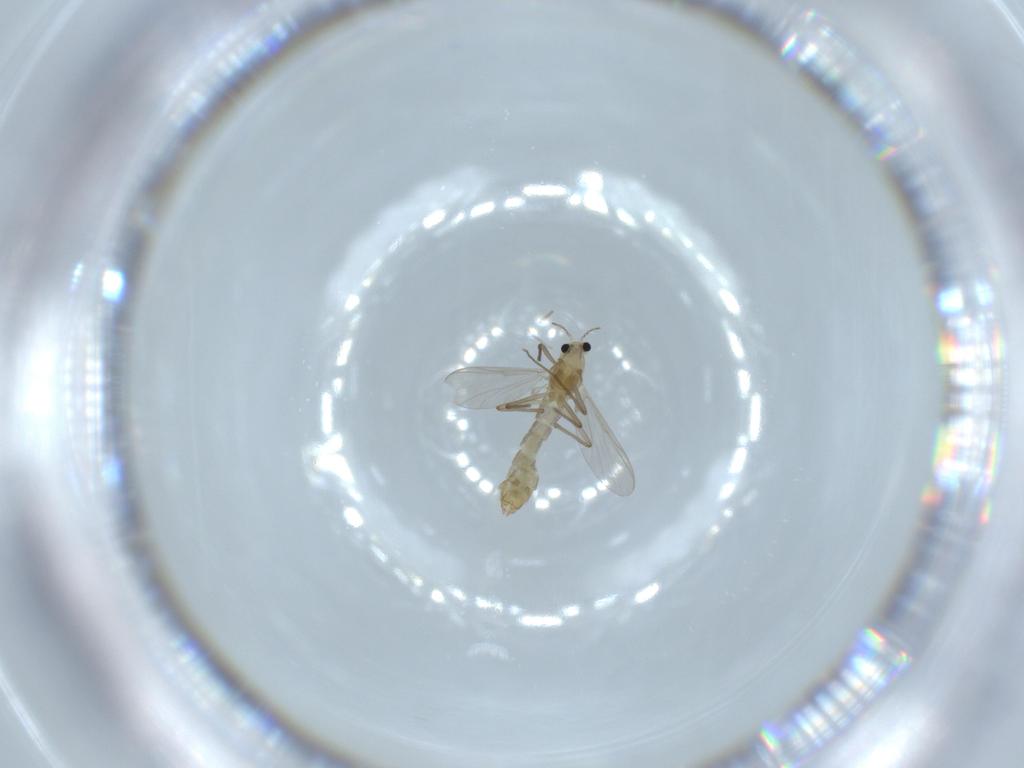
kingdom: Animalia
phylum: Arthropoda
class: Insecta
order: Diptera
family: Chironomidae
